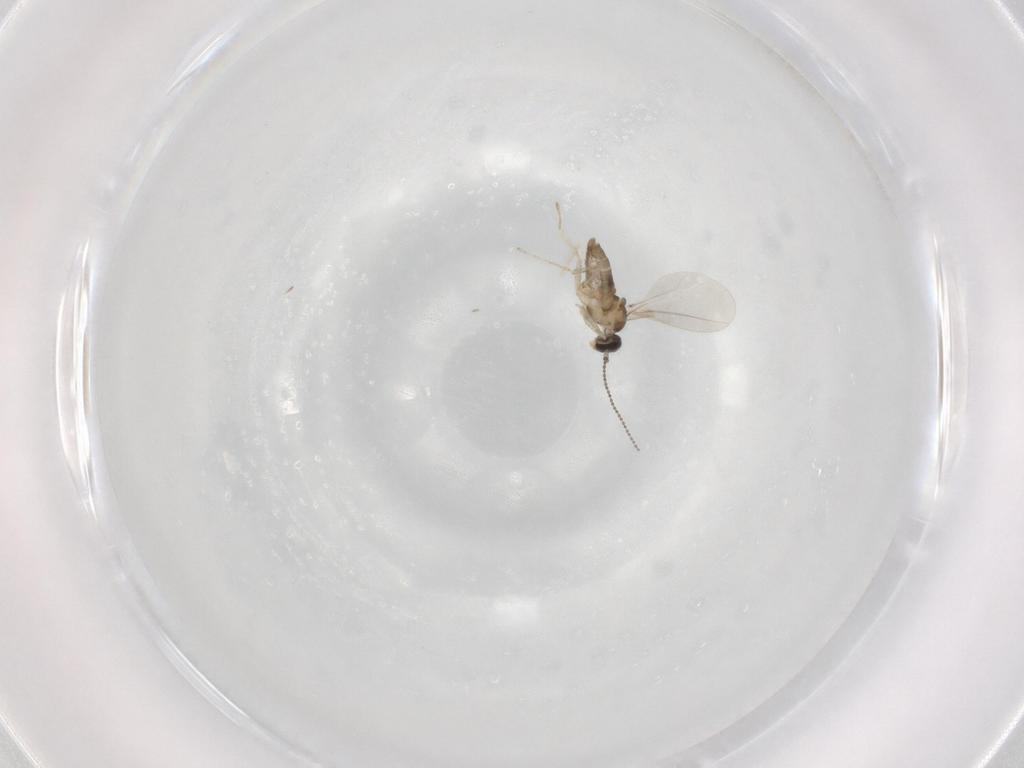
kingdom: Animalia
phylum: Arthropoda
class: Insecta
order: Diptera
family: Cecidomyiidae
